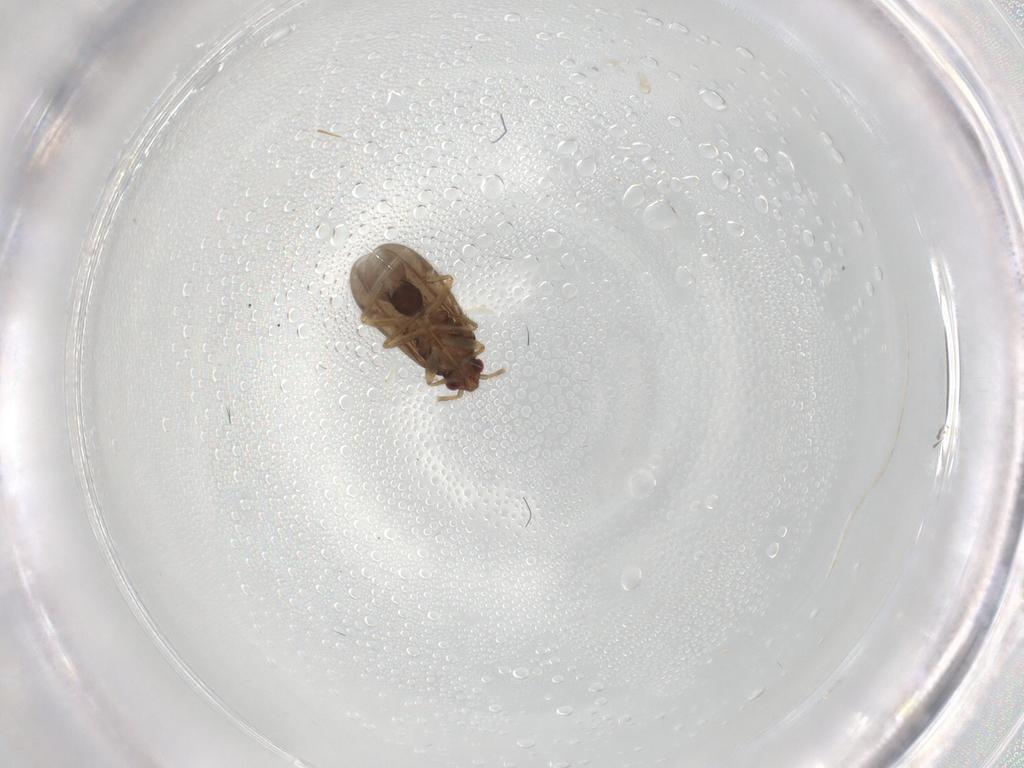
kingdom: Animalia
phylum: Arthropoda
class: Insecta
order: Hemiptera
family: Ceratocombidae
